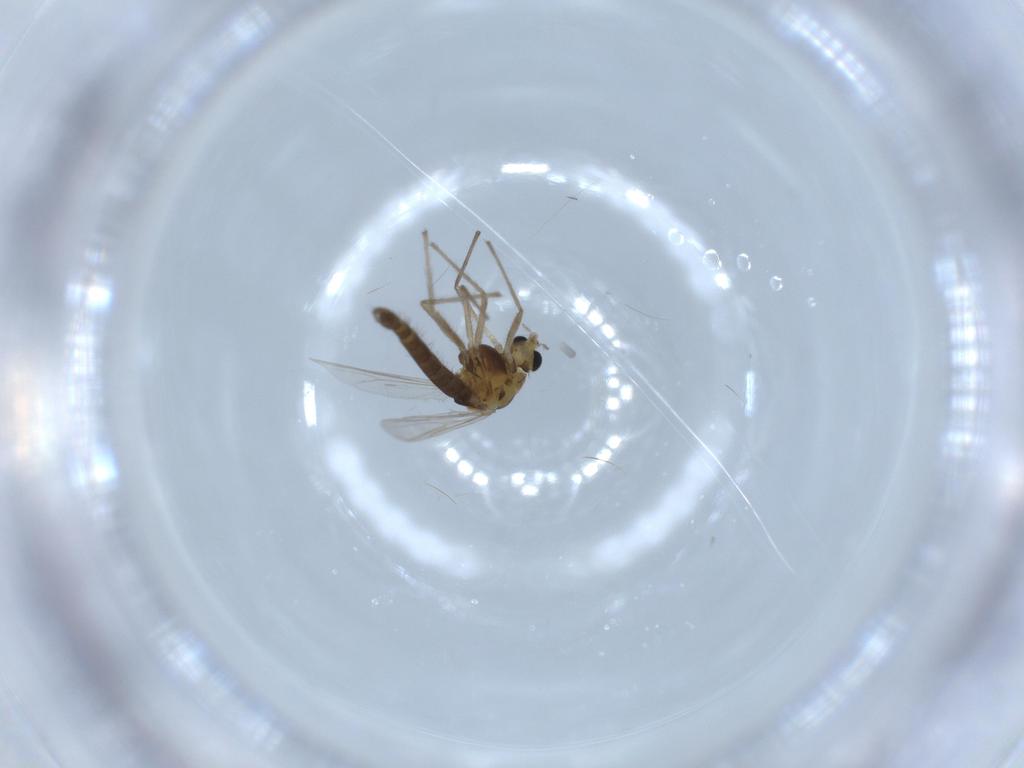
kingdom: Animalia
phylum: Arthropoda
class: Insecta
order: Diptera
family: Chironomidae
